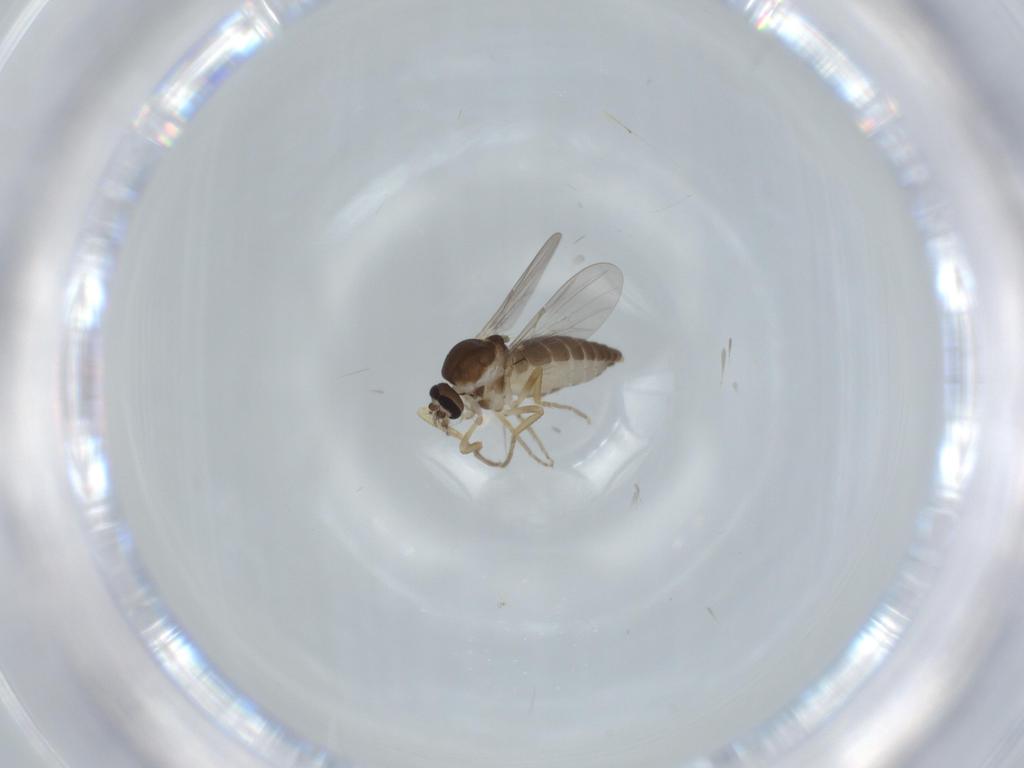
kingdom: Animalia
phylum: Arthropoda
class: Insecta
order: Diptera
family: Ceratopogonidae
